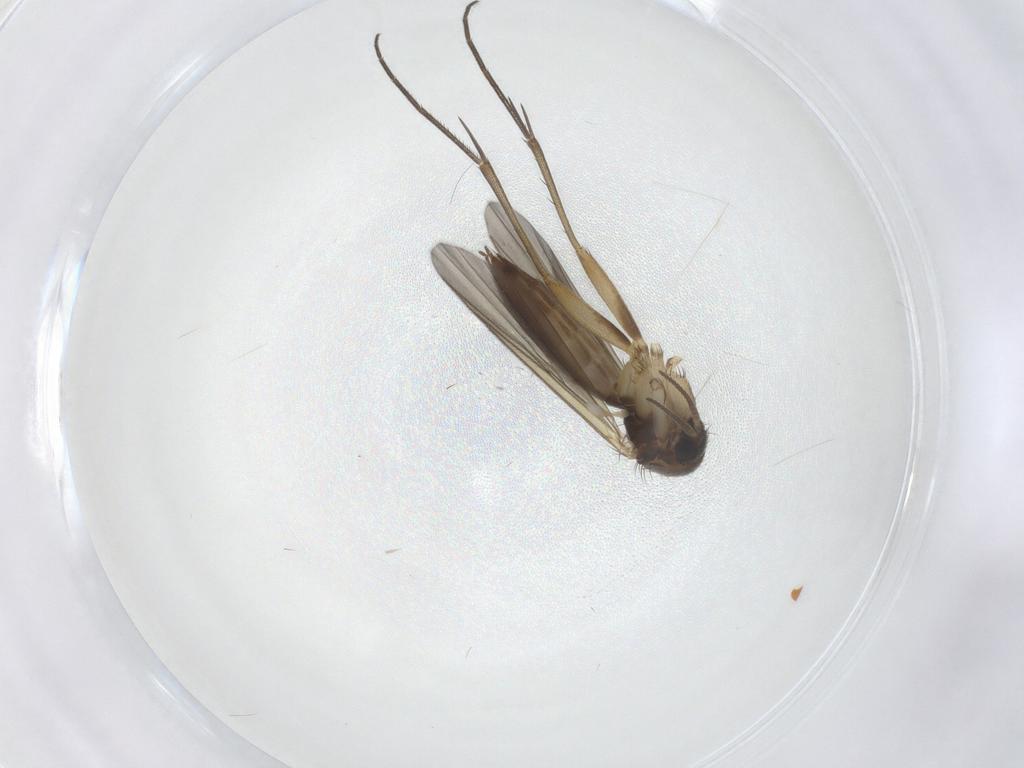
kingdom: Animalia
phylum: Arthropoda
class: Insecta
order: Diptera
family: Mycetophilidae
